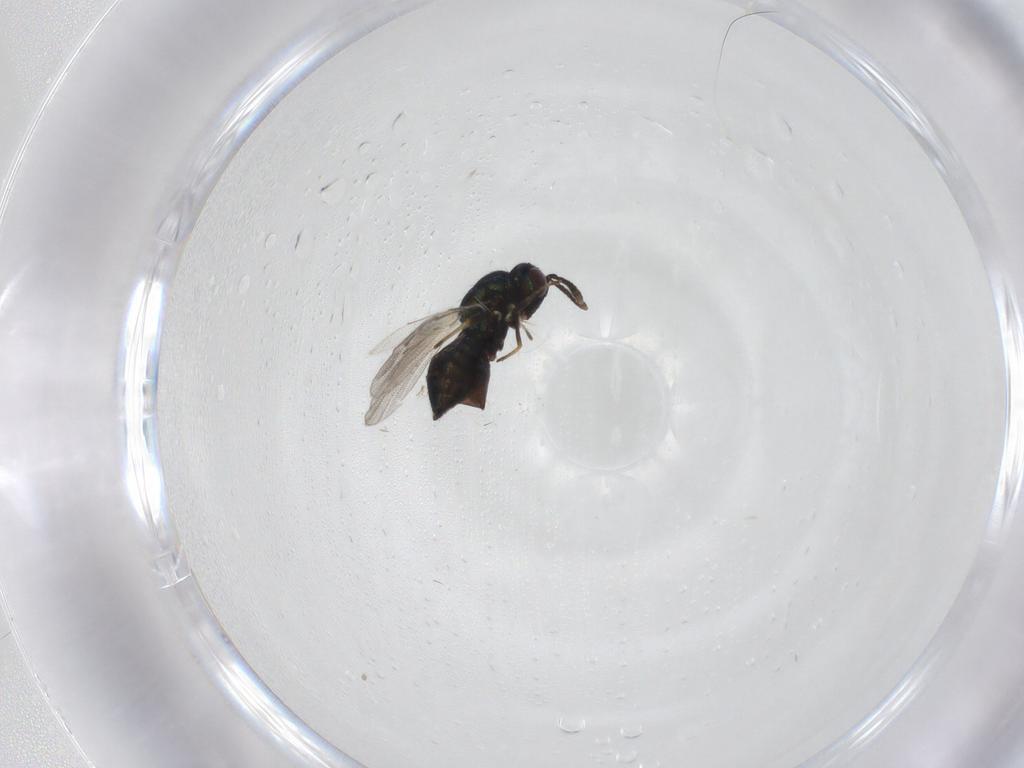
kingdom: Animalia
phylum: Arthropoda
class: Insecta
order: Hymenoptera
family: Pteromalidae
